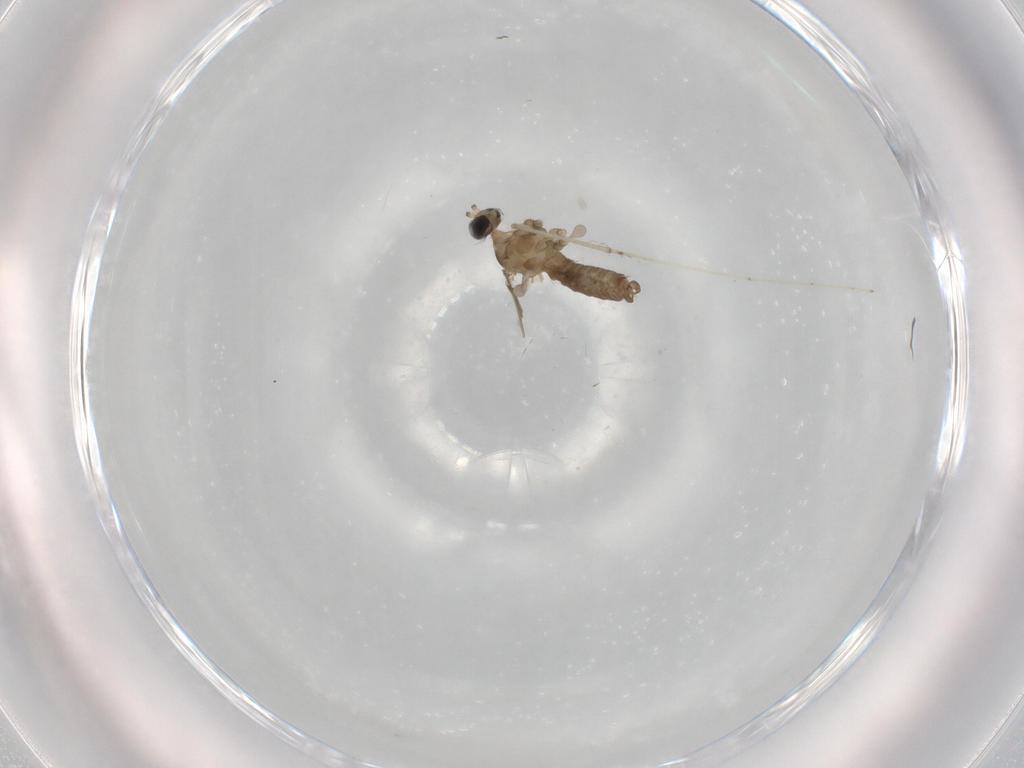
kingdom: Animalia
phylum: Arthropoda
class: Insecta
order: Diptera
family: Cecidomyiidae
